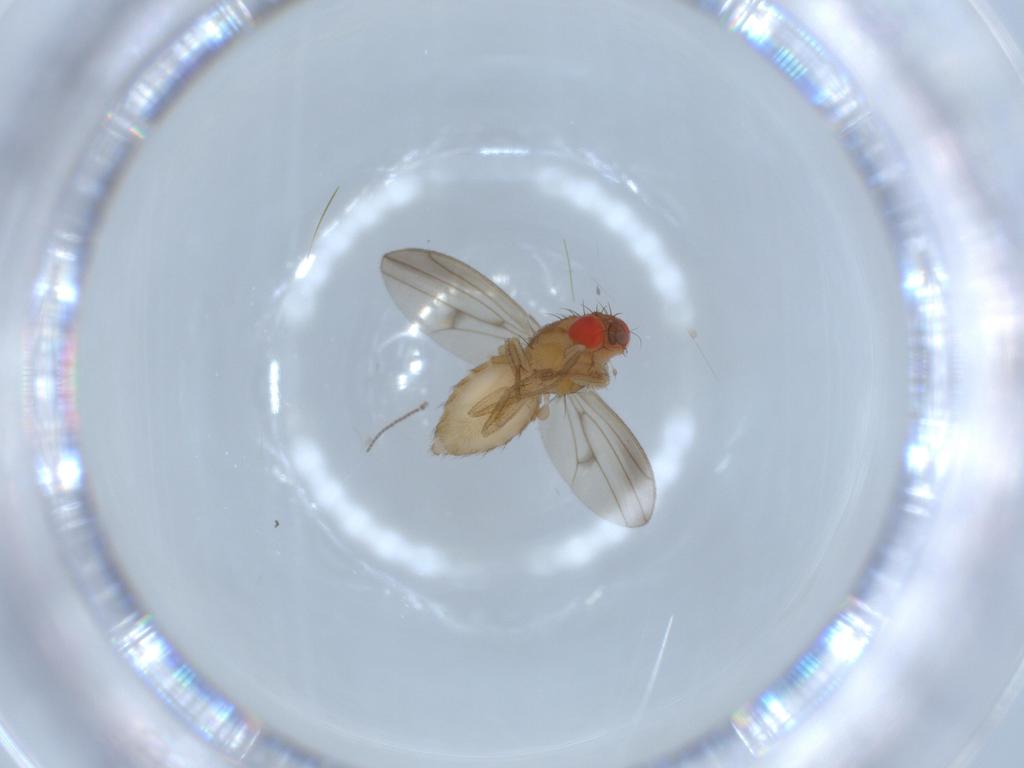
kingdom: Animalia
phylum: Arthropoda
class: Insecta
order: Diptera
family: Drosophilidae
